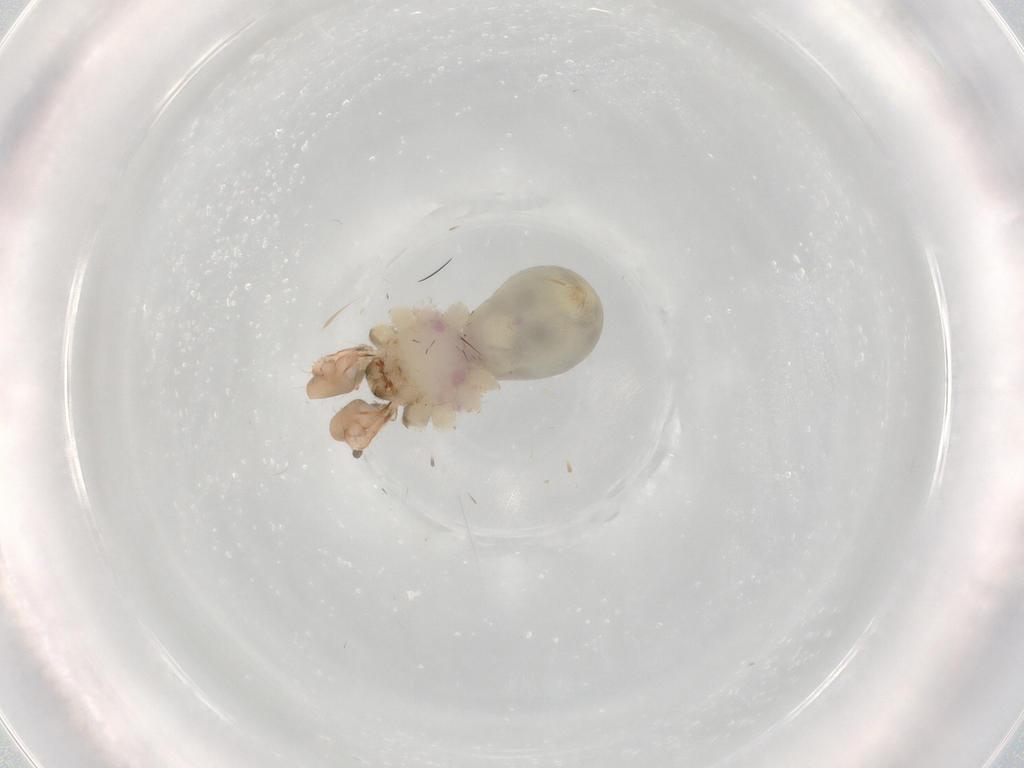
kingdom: Animalia
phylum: Arthropoda
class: Arachnida
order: Araneae
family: Pholcidae
